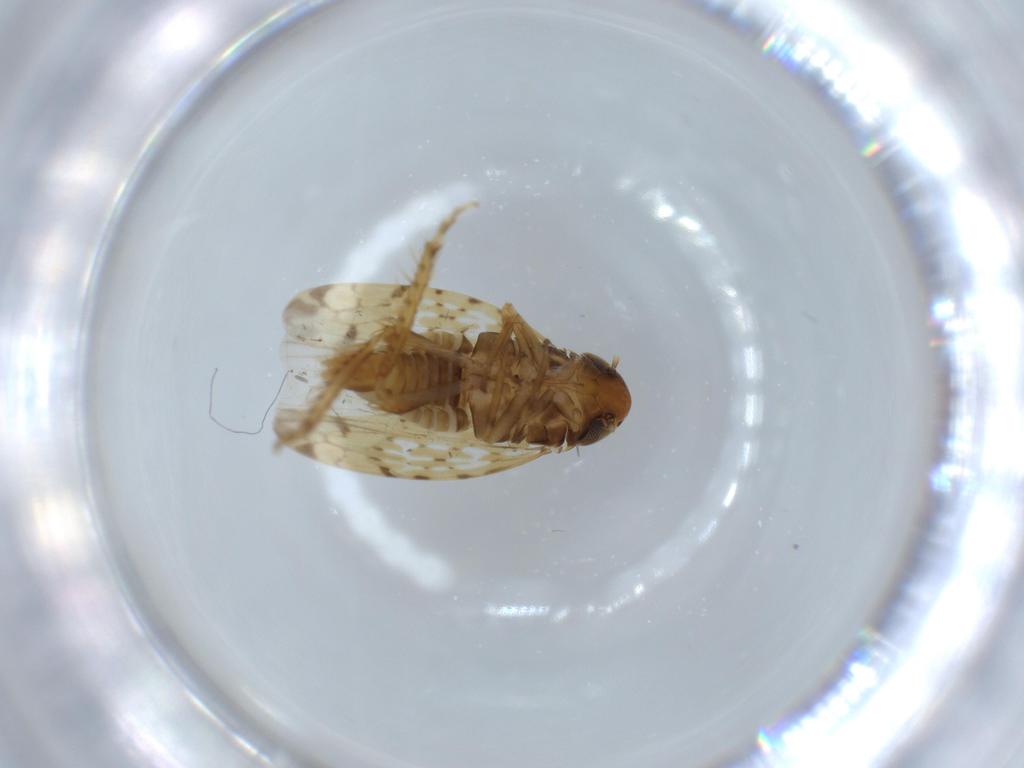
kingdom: Animalia
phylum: Arthropoda
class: Insecta
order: Hemiptera
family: Cicadellidae
